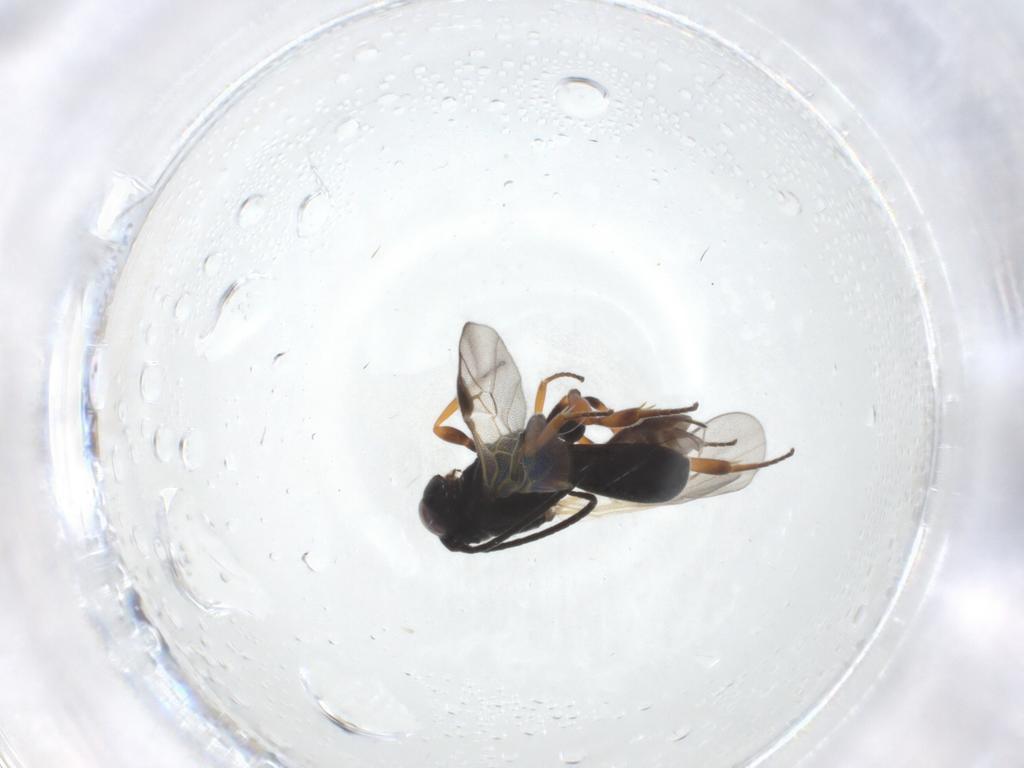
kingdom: Animalia
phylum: Arthropoda
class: Insecta
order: Hymenoptera
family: Braconidae
